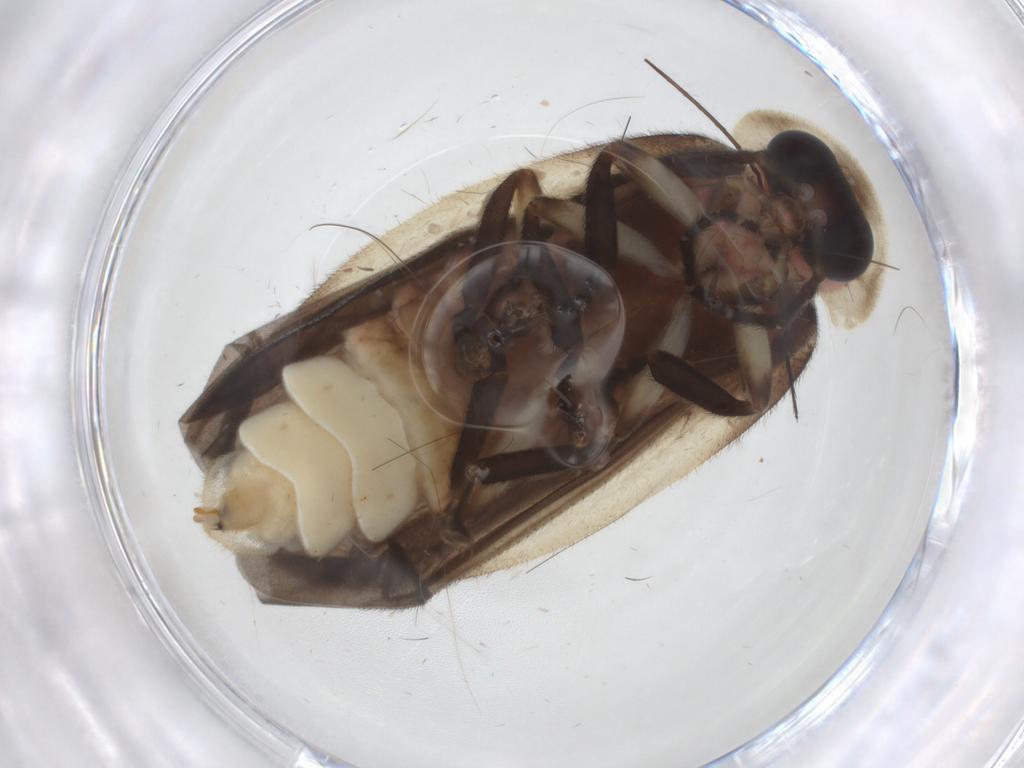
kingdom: Animalia
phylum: Arthropoda
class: Insecta
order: Coleoptera
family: Lampyridae
